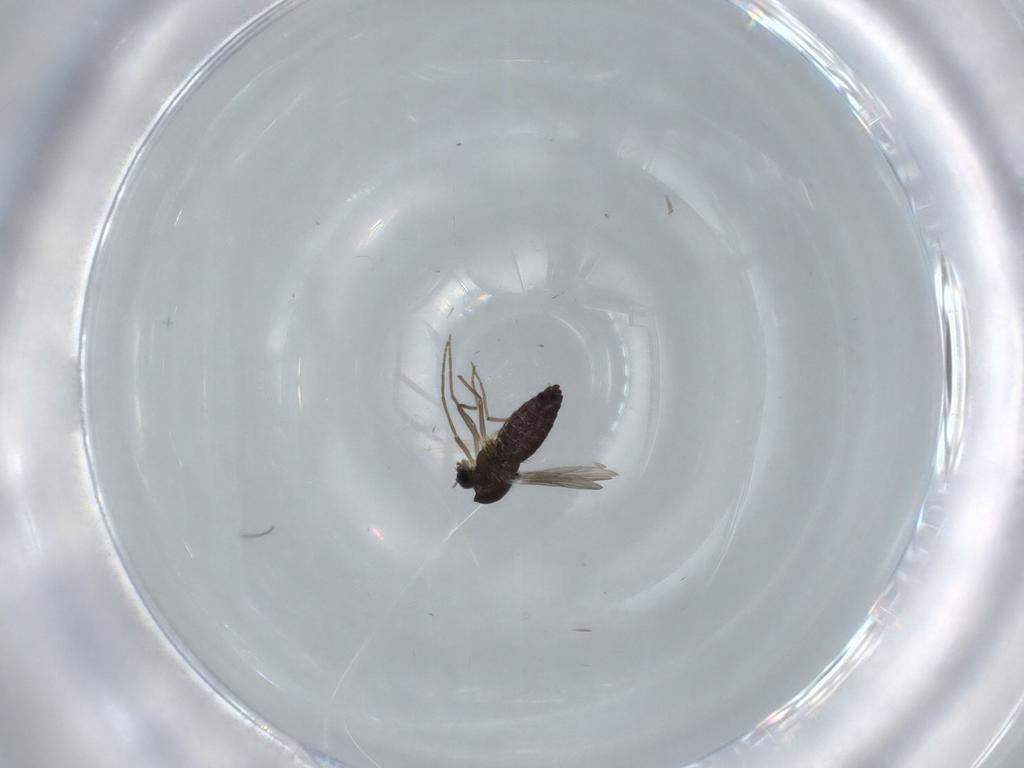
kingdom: Animalia
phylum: Arthropoda
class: Insecta
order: Diptera
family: Chironomidae
